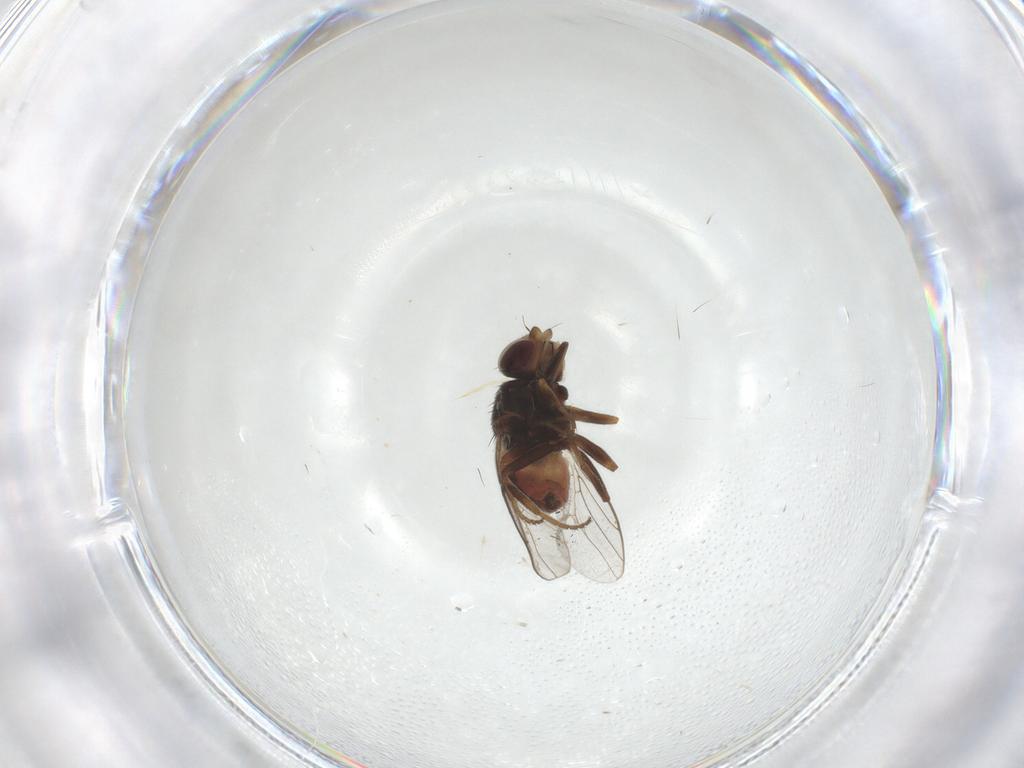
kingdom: Animalia
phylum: Arthropoda
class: Insecta
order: Diptera
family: Chloropidae
